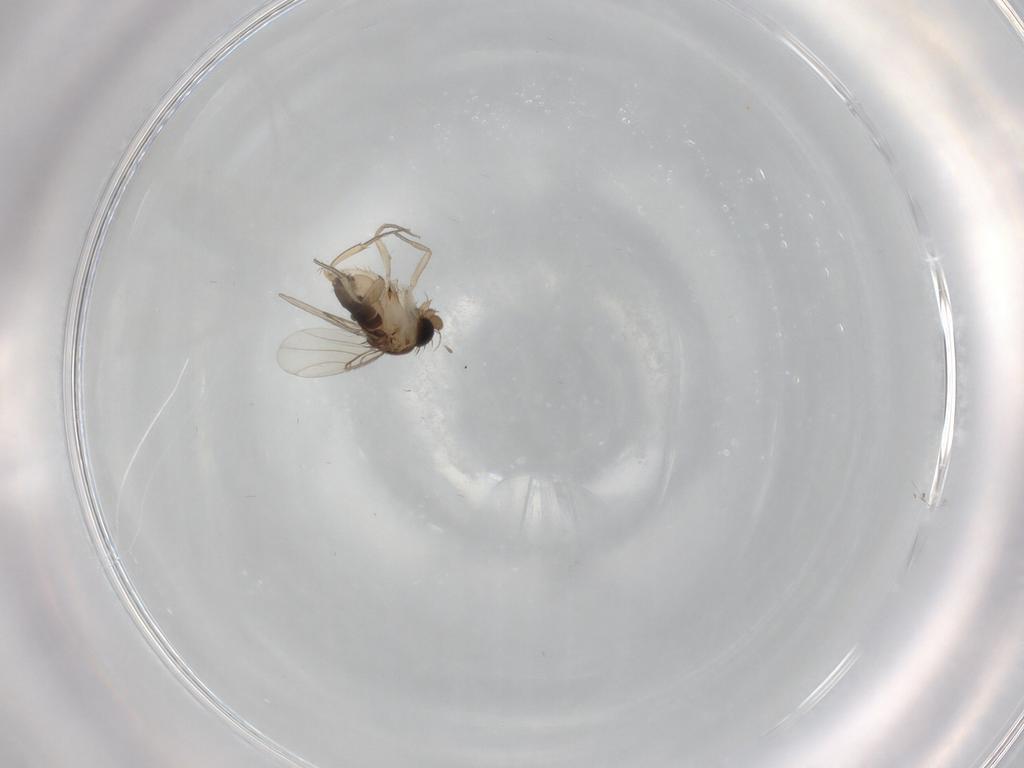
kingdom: Animalia
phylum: Arthropoda
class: Insecta
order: Diptera
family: Phoridae
